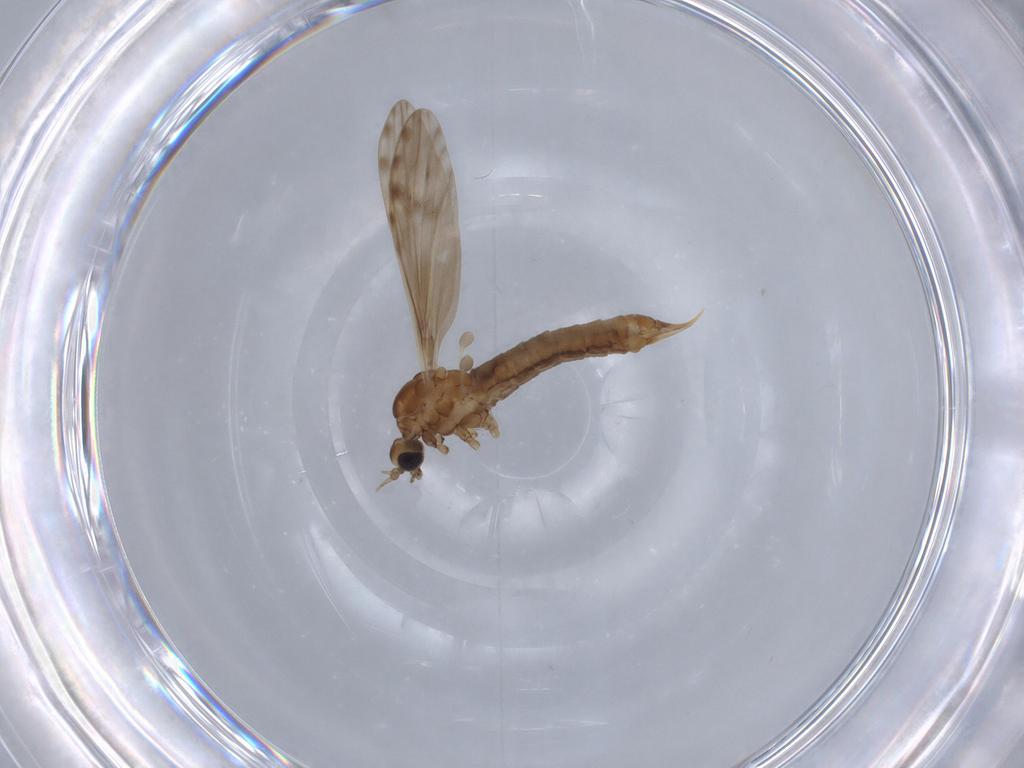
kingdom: Animalia
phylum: Arthropoda
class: Insecta
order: Diptera
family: Limoniidae
